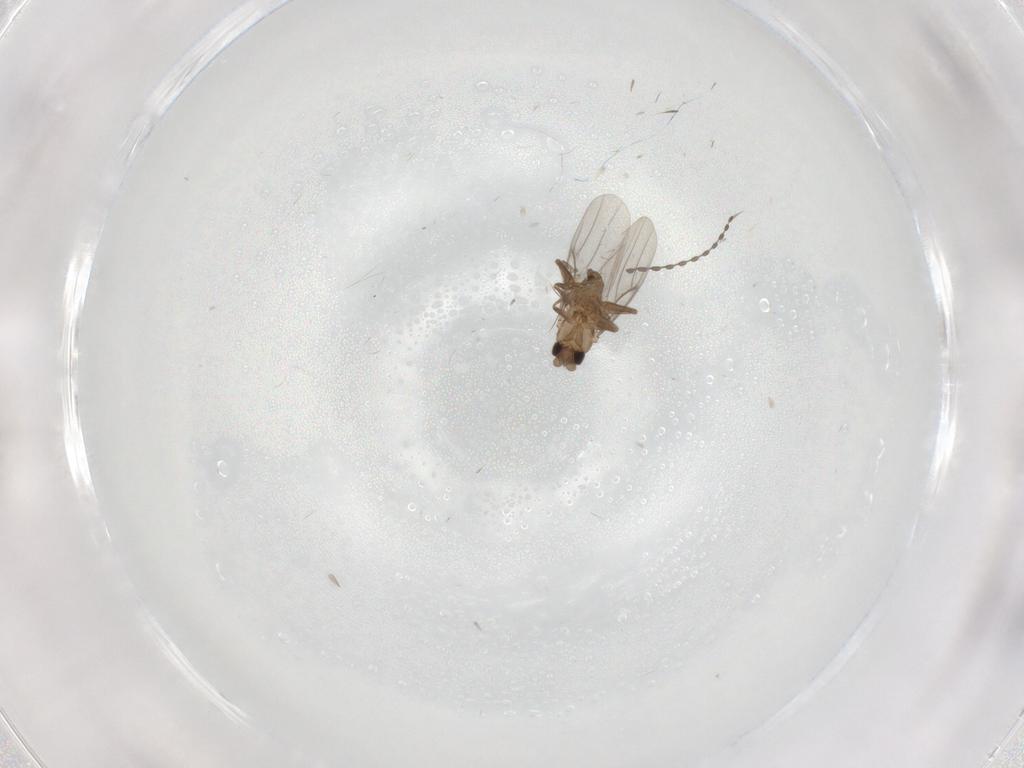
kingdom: Animalia
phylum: Arthropoda
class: Insecta
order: Diptera
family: Cecidomyiidae
